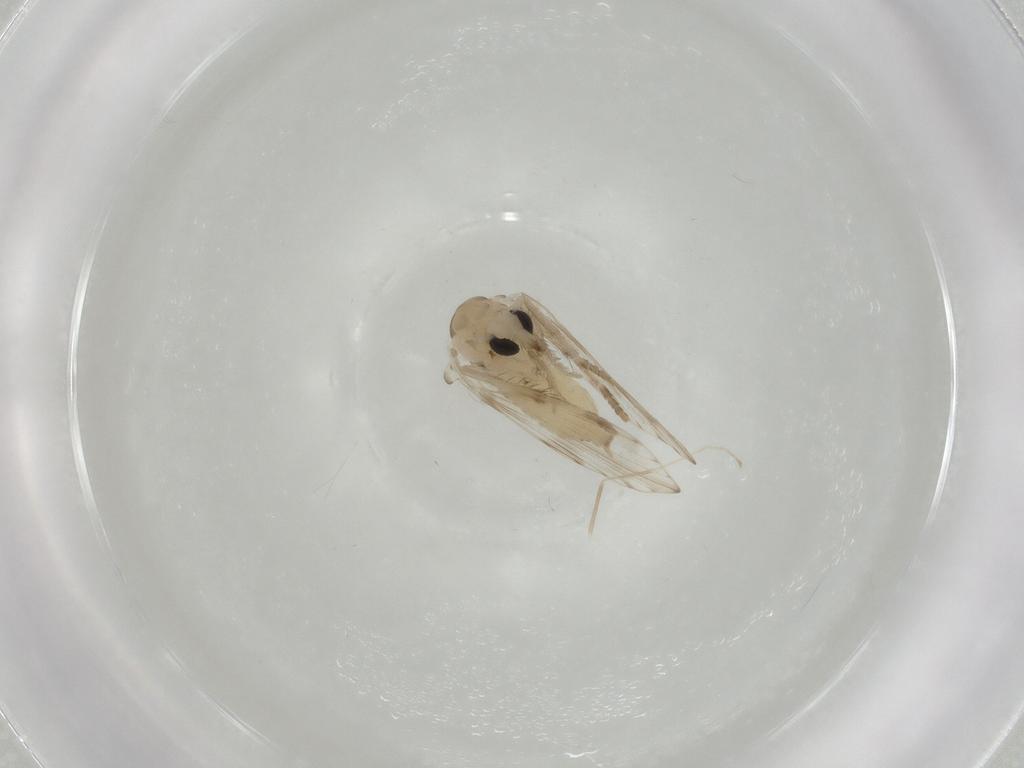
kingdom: Animalia
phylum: Arthropoda
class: Insecta
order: Diptera
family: Psychodidae
